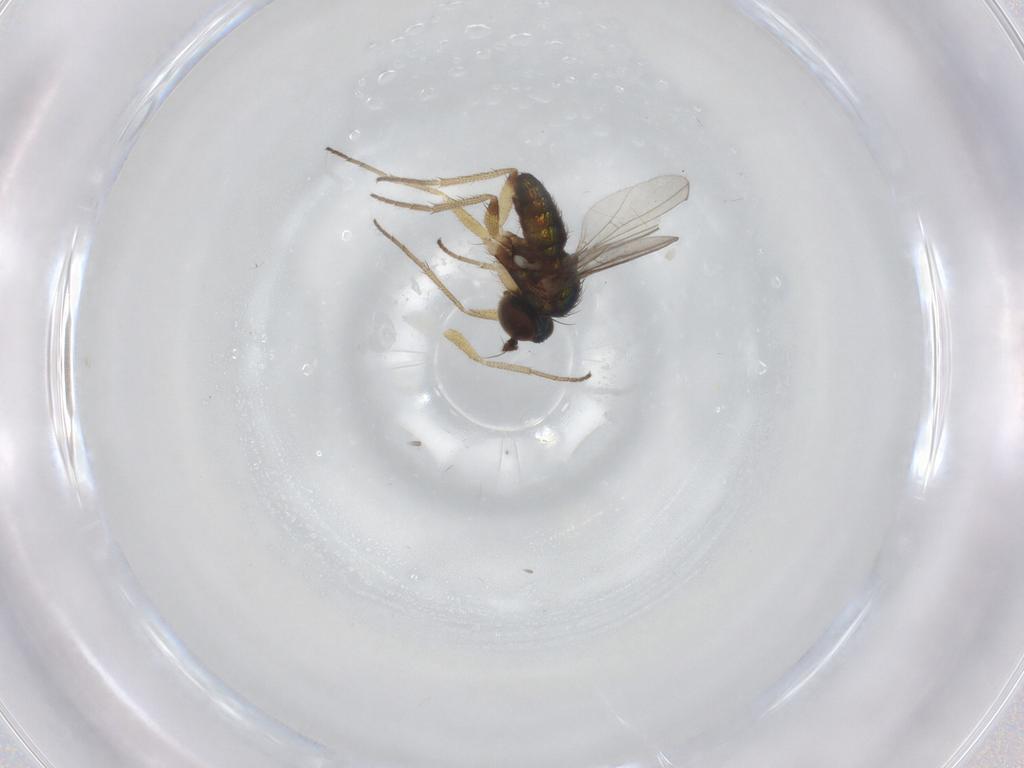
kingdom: Animalia
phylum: Arthropoda
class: Insecta
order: Diptera
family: Dolichopodidae
